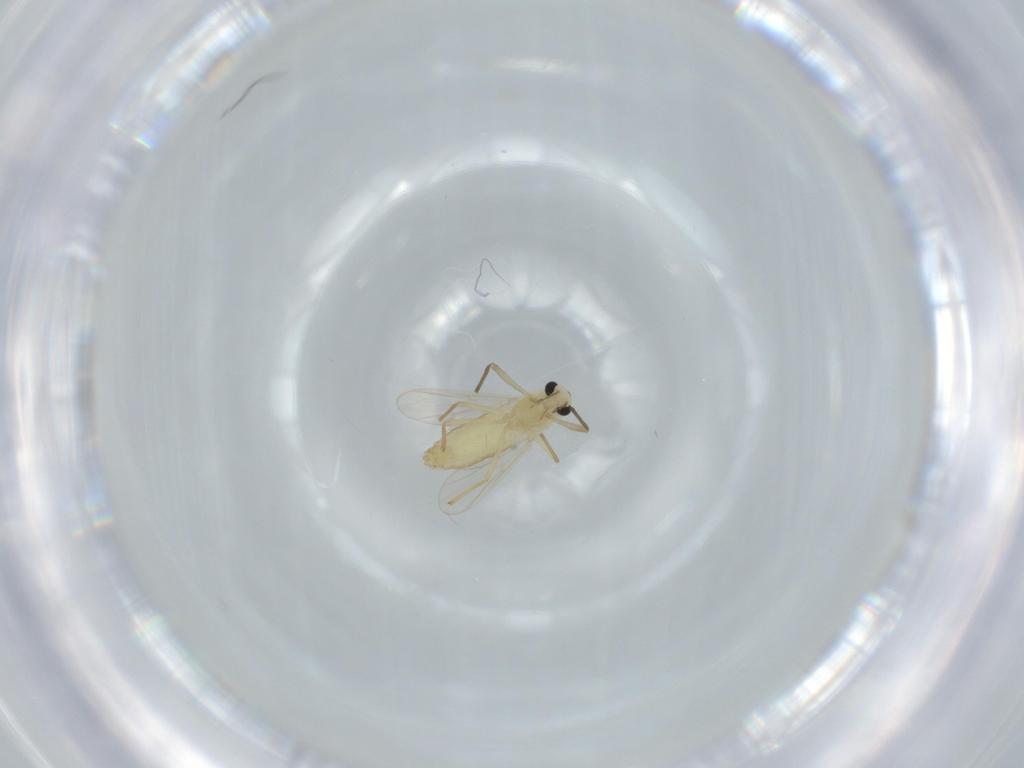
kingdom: Animalia
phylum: Arthropoda
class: Insecta
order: Diptera
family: Chironomidae
